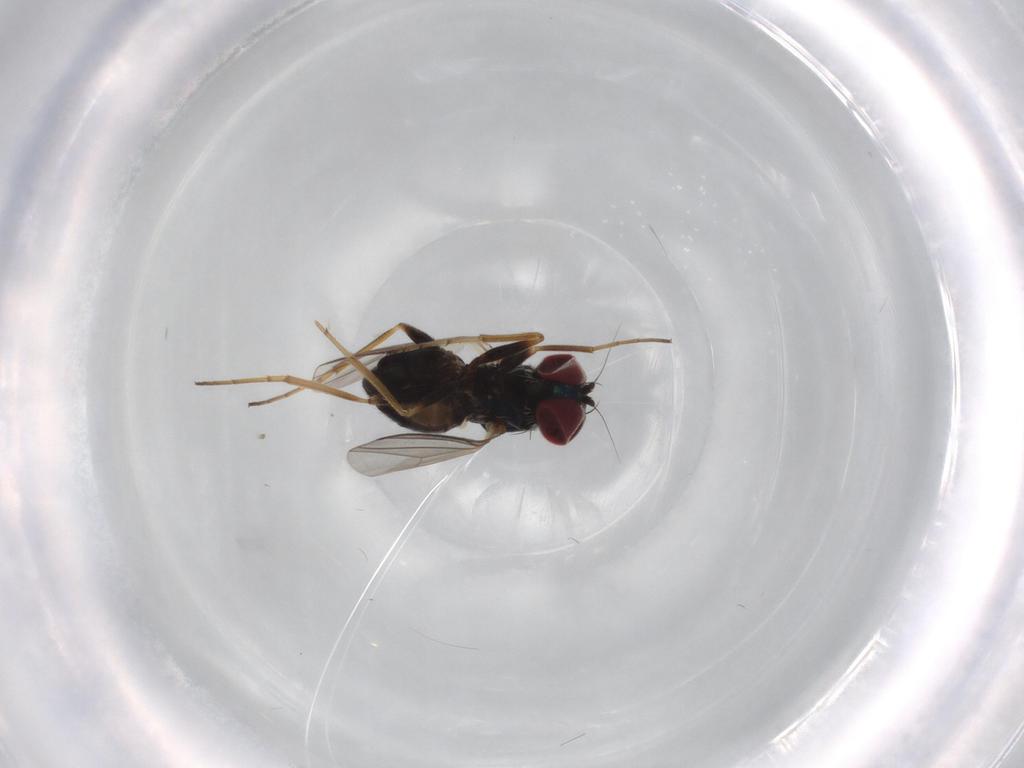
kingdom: Animalia
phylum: Arthropoda
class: Insecta
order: Diptera
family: Dolichopodidae
